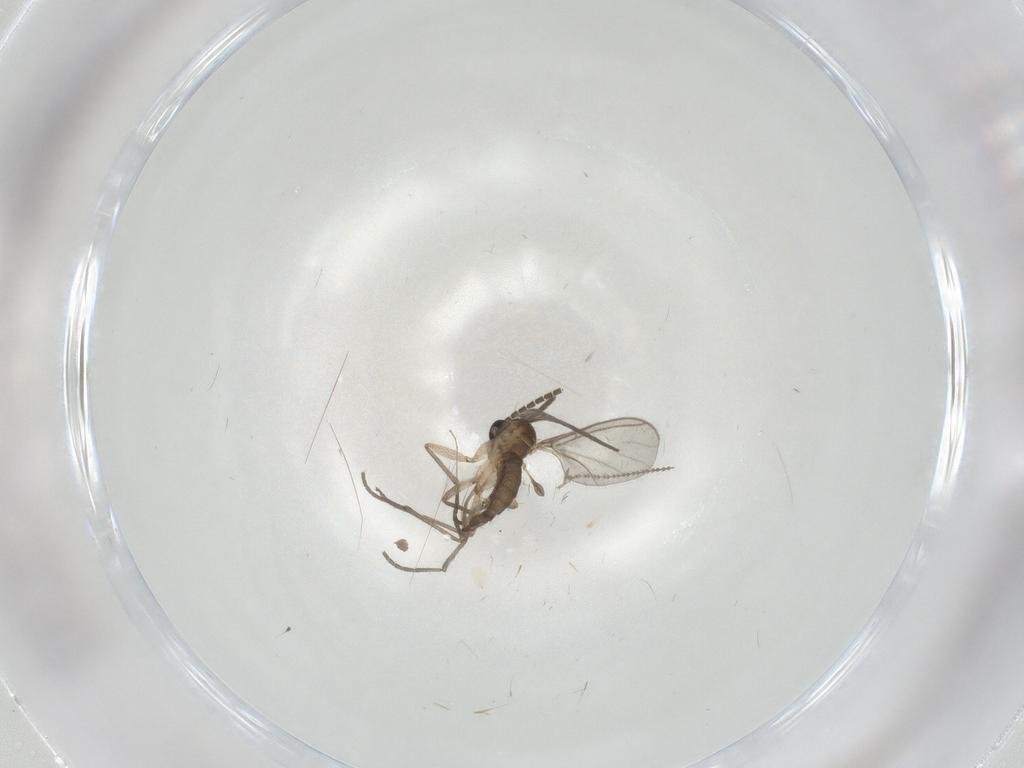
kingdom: Animalia
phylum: Arthropoda
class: Insecta
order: Diptera
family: Sciaridae
